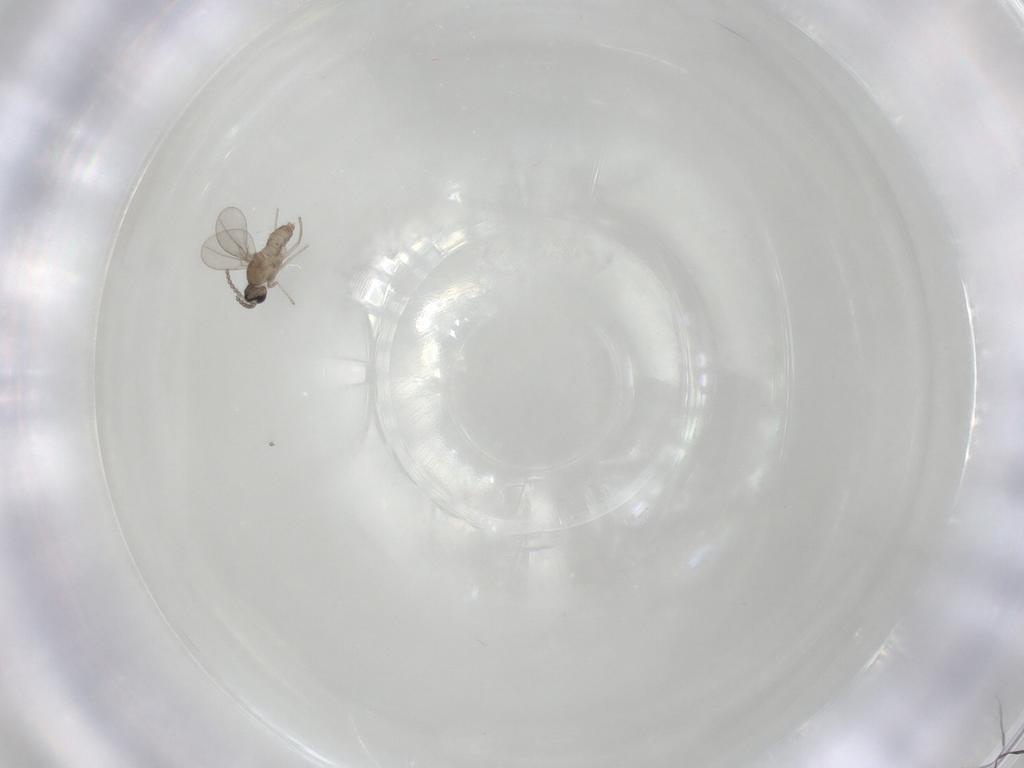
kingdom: Animalia
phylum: Arthropoda
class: Insecta
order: Diptera
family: Cecidomyiidae
